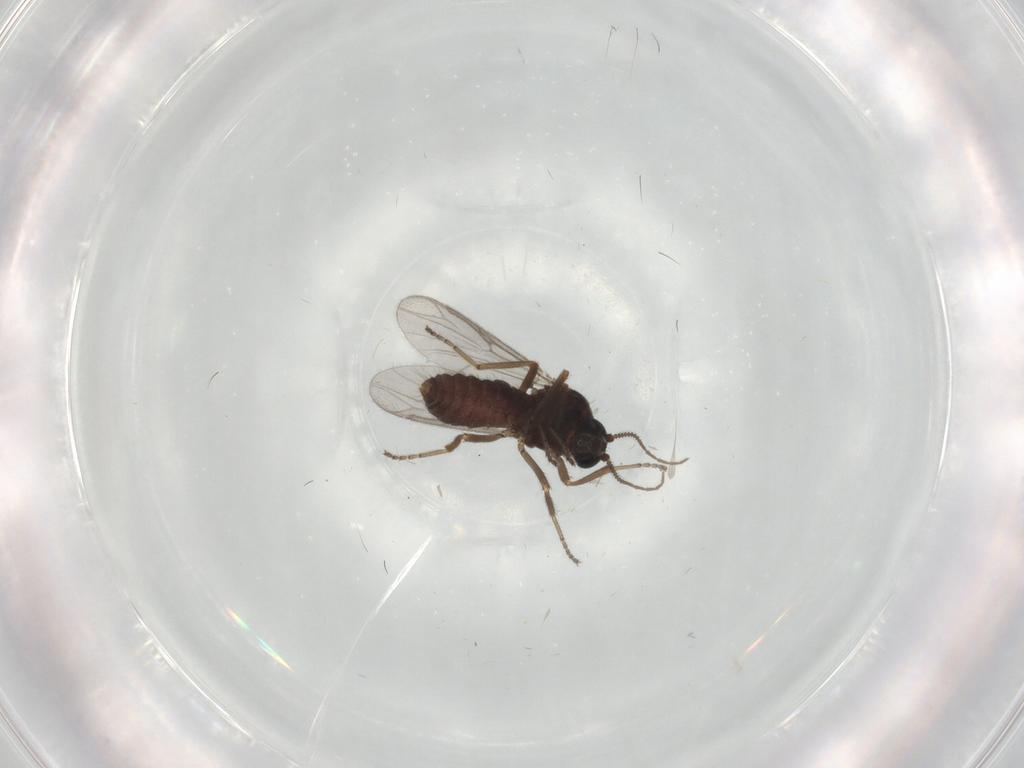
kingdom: Animalia
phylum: Arthropoda
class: Insecta
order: Diptera
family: Ceratopogonidae
